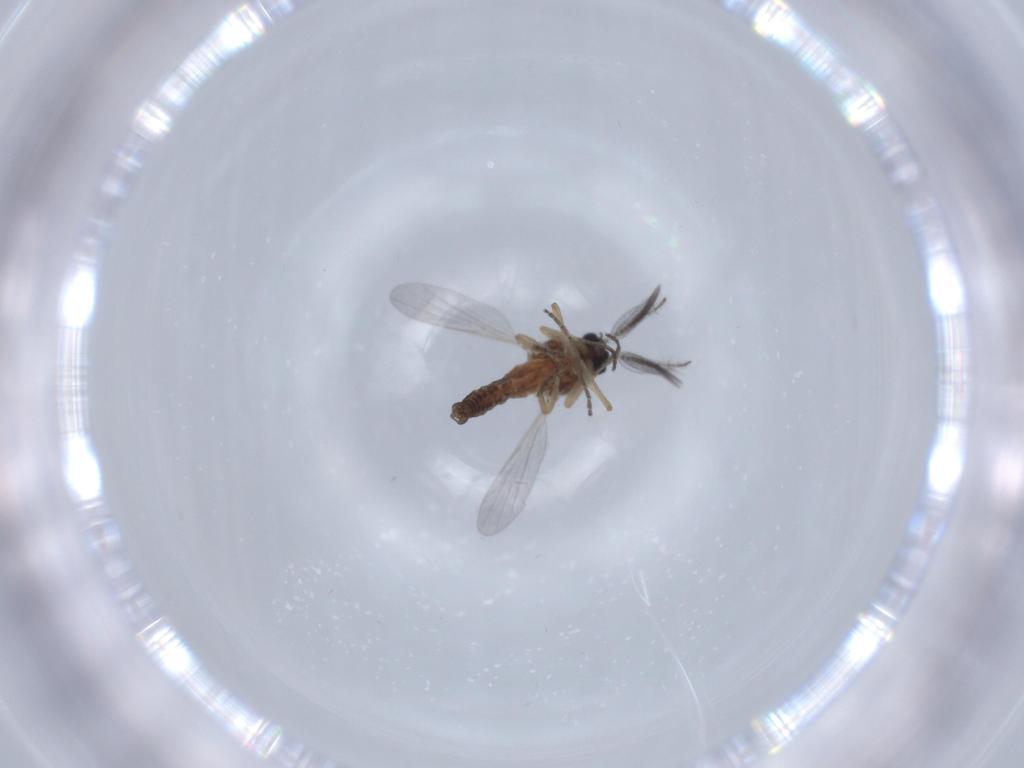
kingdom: Animalia
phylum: Arthropoda
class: Insecta
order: Diptera
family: Ceratopogonidae
